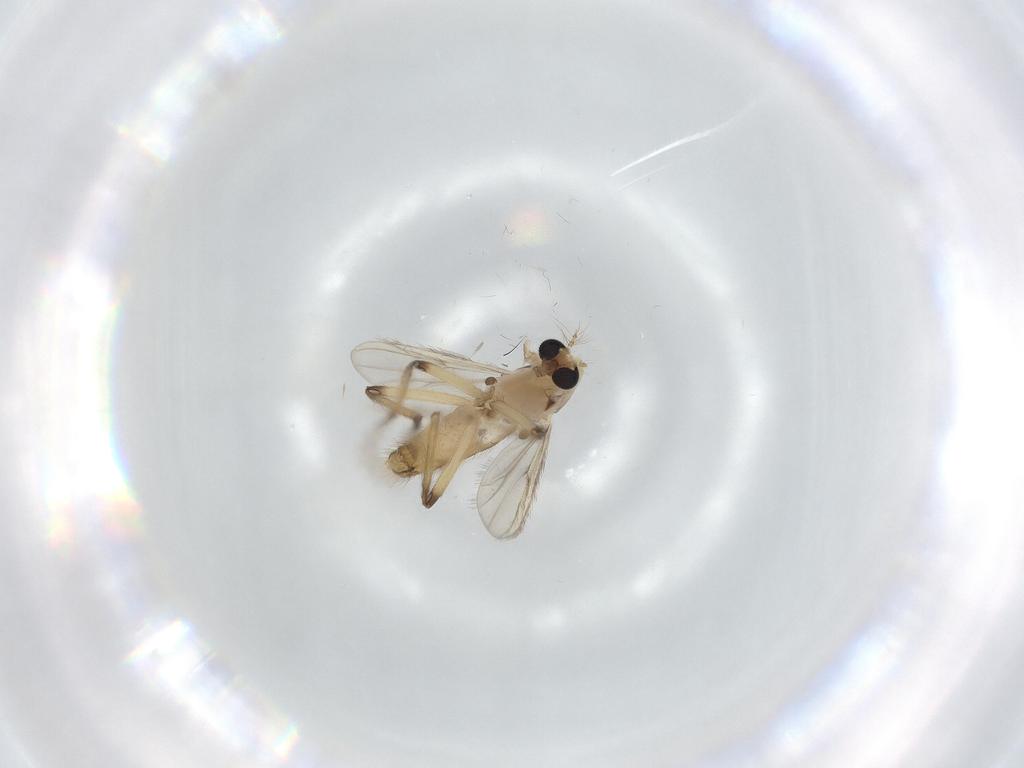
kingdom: Animalia
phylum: Arthropoda
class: Insecta
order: Diptera
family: Chironomidae
